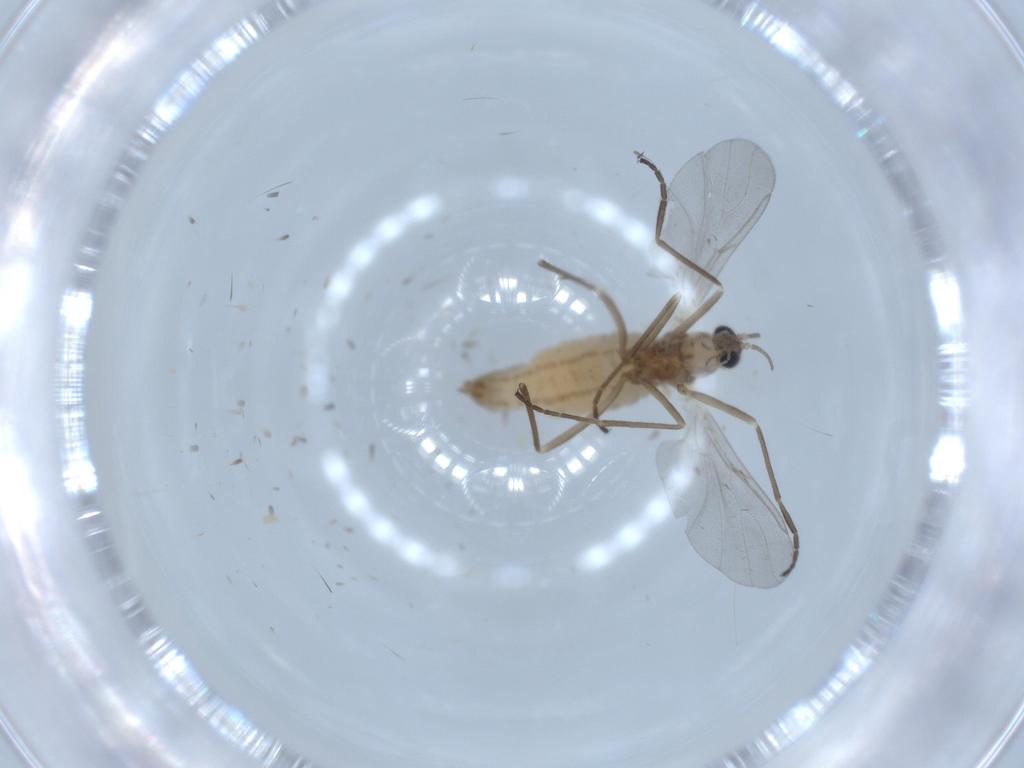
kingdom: Animalia
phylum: Arthropoda
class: Insecta
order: Diptera
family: Cecidomyiidae
